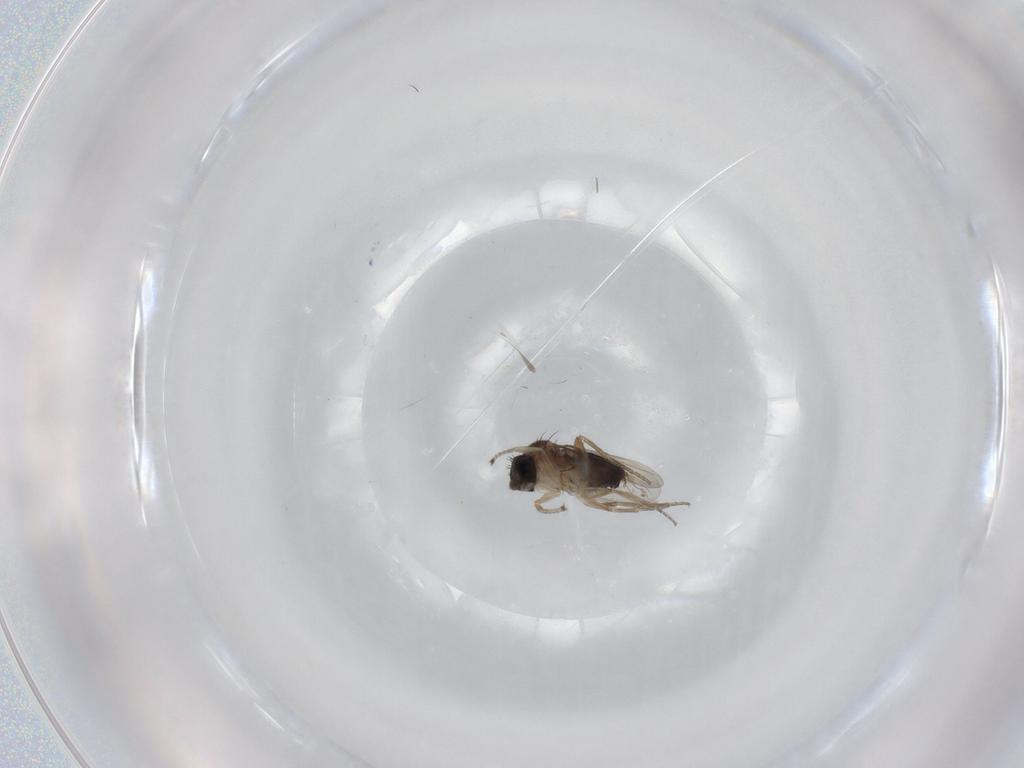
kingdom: Animalia
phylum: Arthropoda
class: Insecta
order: Diptera
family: Phoridae
